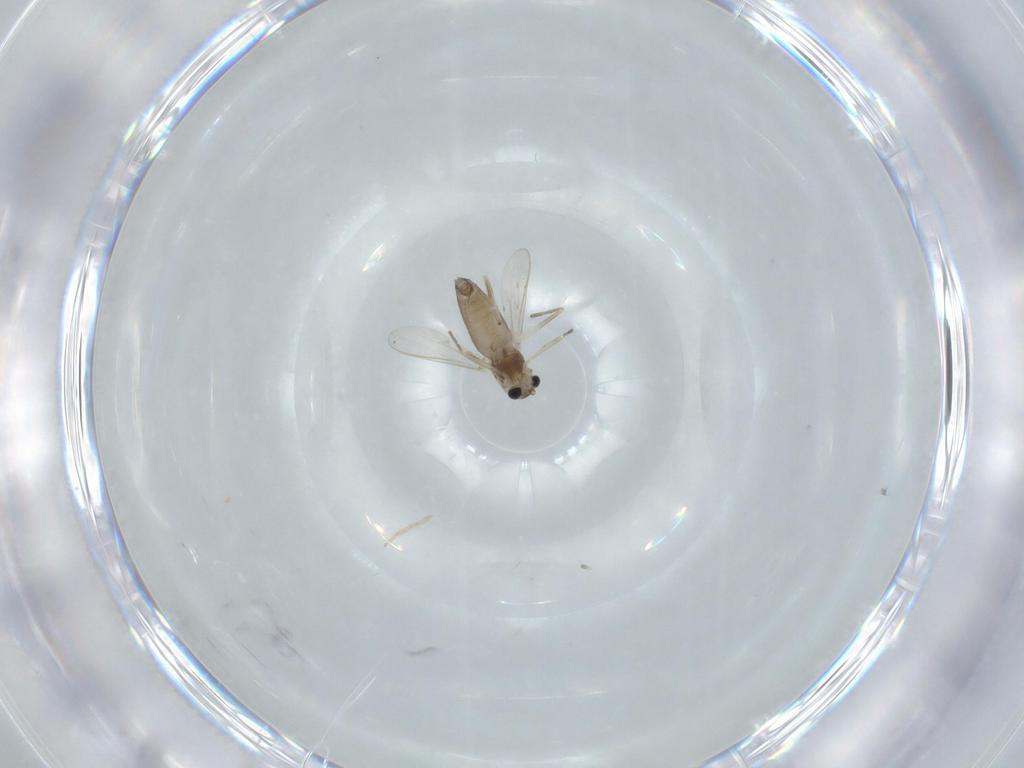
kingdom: Animalia
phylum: Arthropoda
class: Insecta
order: Diptera
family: Chironomidae
